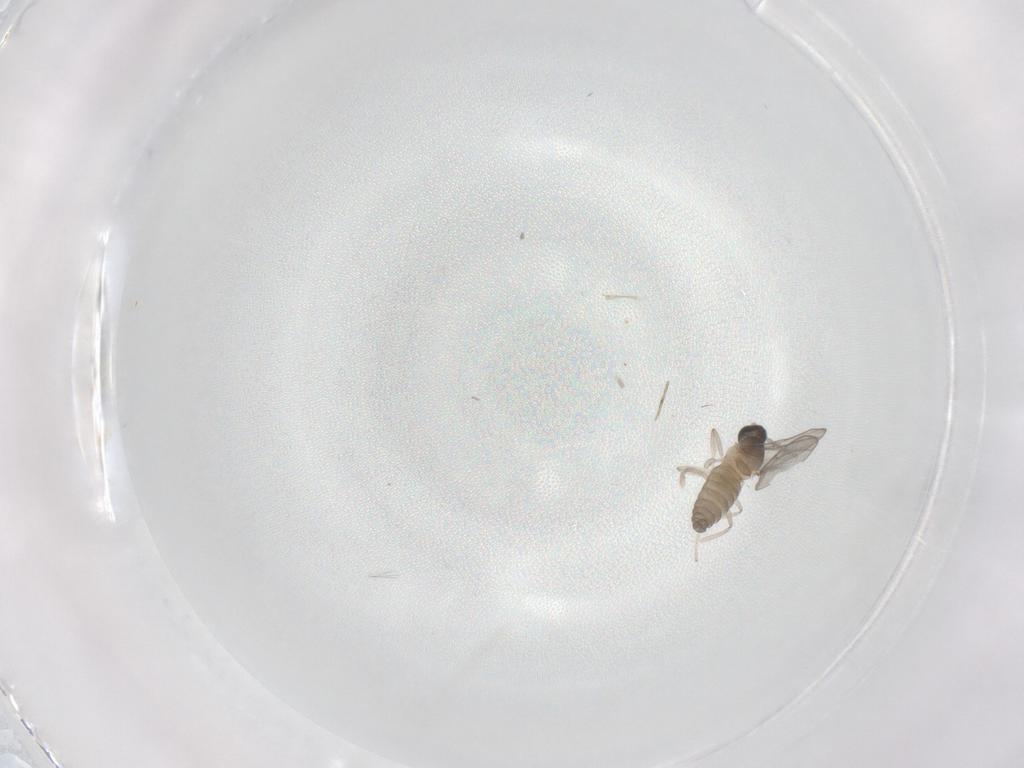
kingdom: Animalia
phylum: Arthropoda
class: Insecta
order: Diptera
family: Cecidomyiidae
